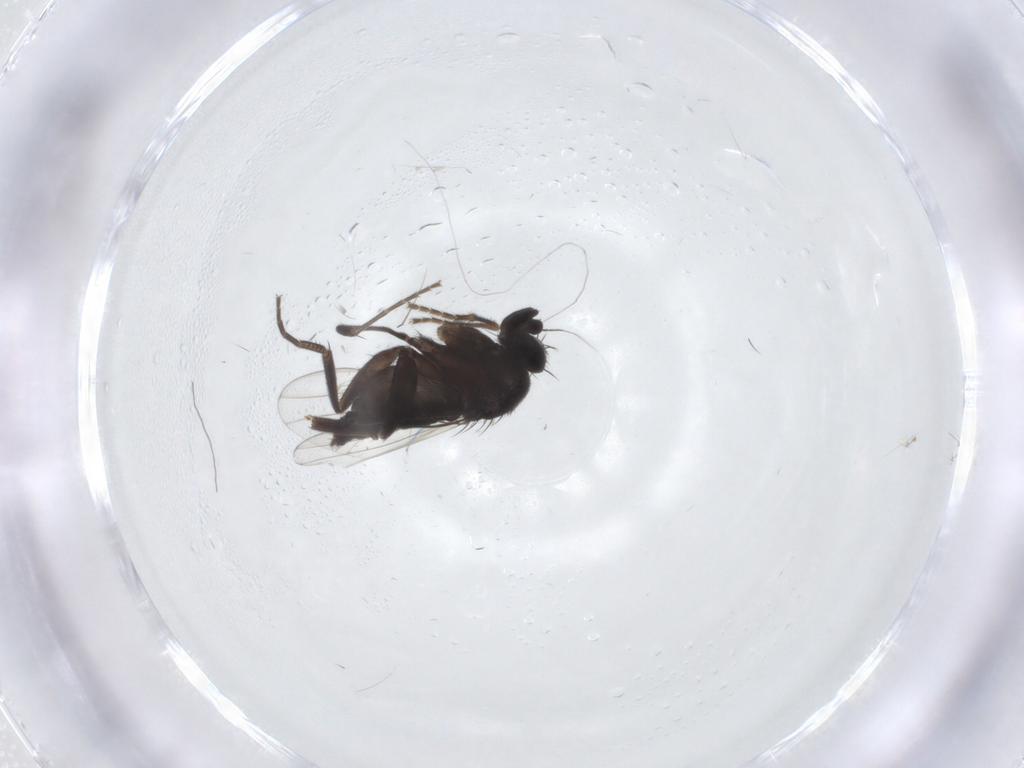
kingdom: Animalia
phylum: Arthropoda
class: Insecta
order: Diptera
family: Phoridae
